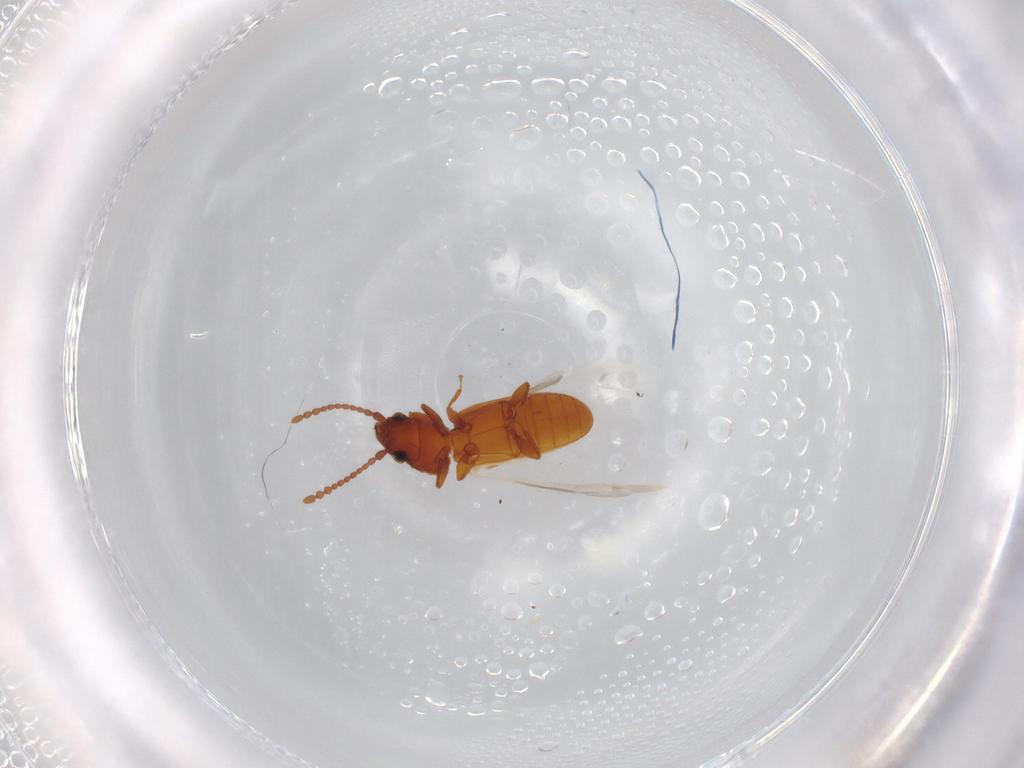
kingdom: Animalia
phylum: Arthropoda
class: Insecta
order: Coleoptera
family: Laemophloeidae
